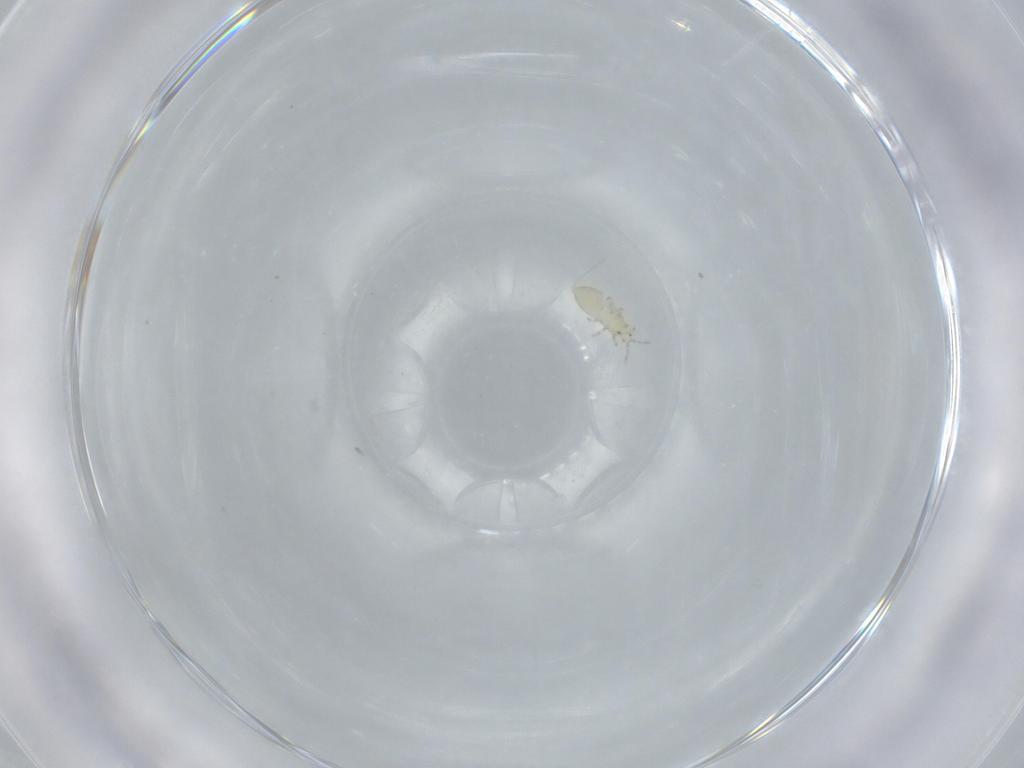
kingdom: Animalia
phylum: Arthropoda
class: Insecta
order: Thysanoptera
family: Thripidae
